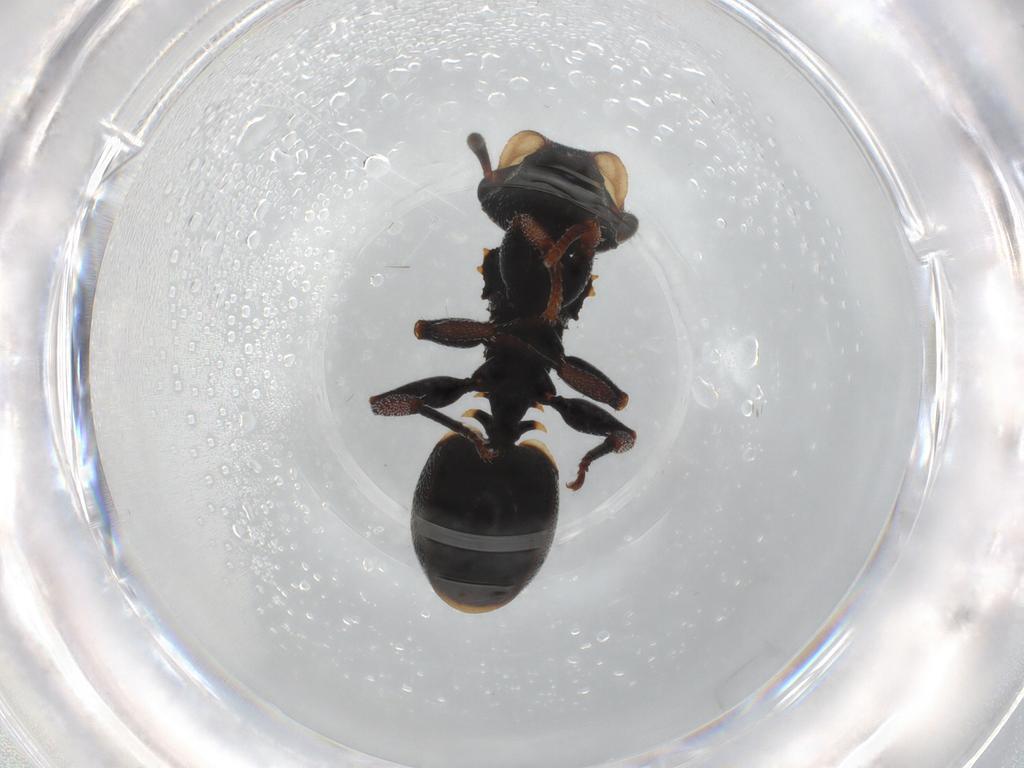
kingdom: Animalia
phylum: Arthropoda
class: Insecta
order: Hymenoptera
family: Formicidae
